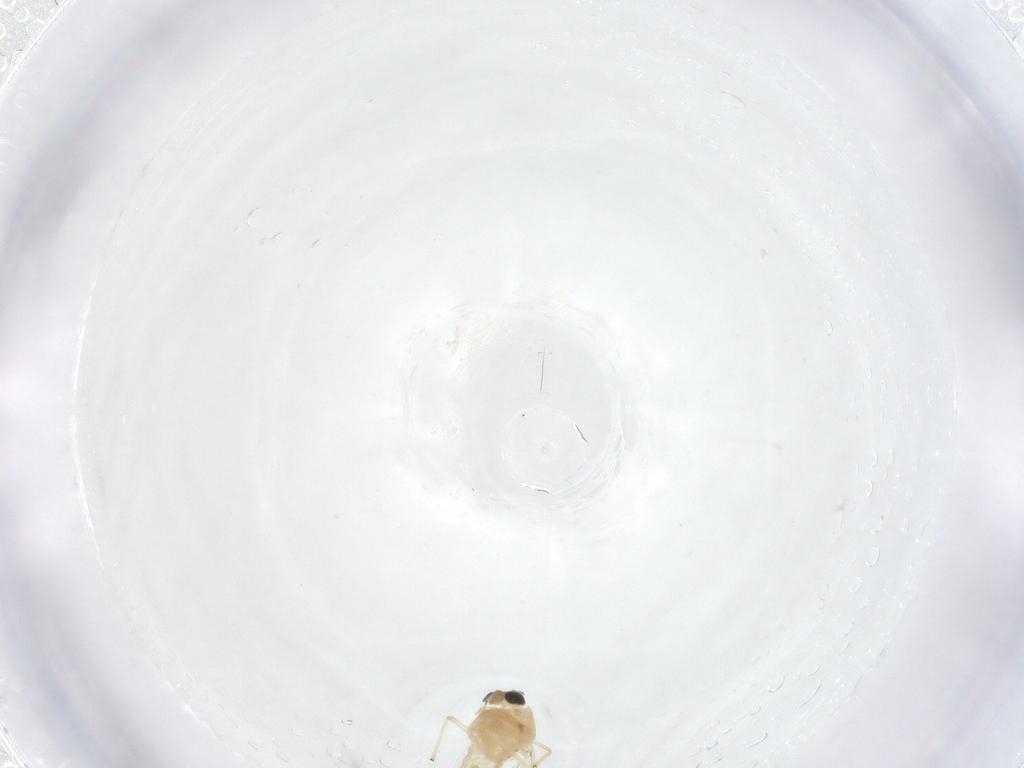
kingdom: Animalia
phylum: Arthropoda
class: Insecta
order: Diptera
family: Chironomidae
